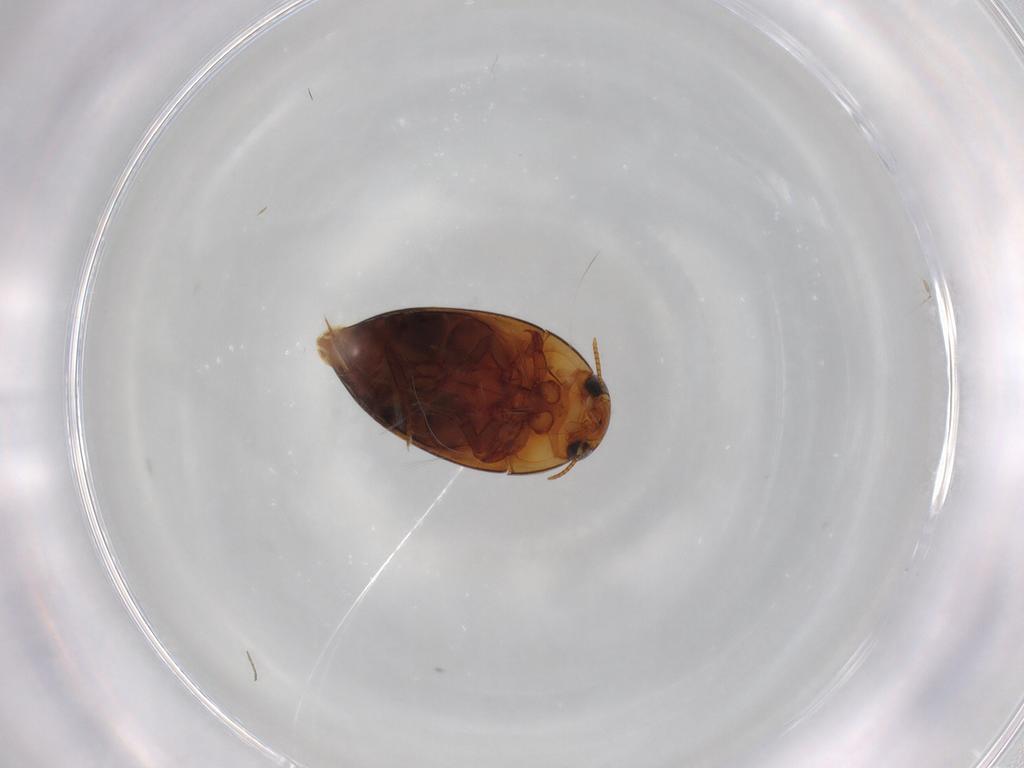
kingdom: Animalia
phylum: Arthropoda
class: Insecta
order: Coleoptera
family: Noteridae
